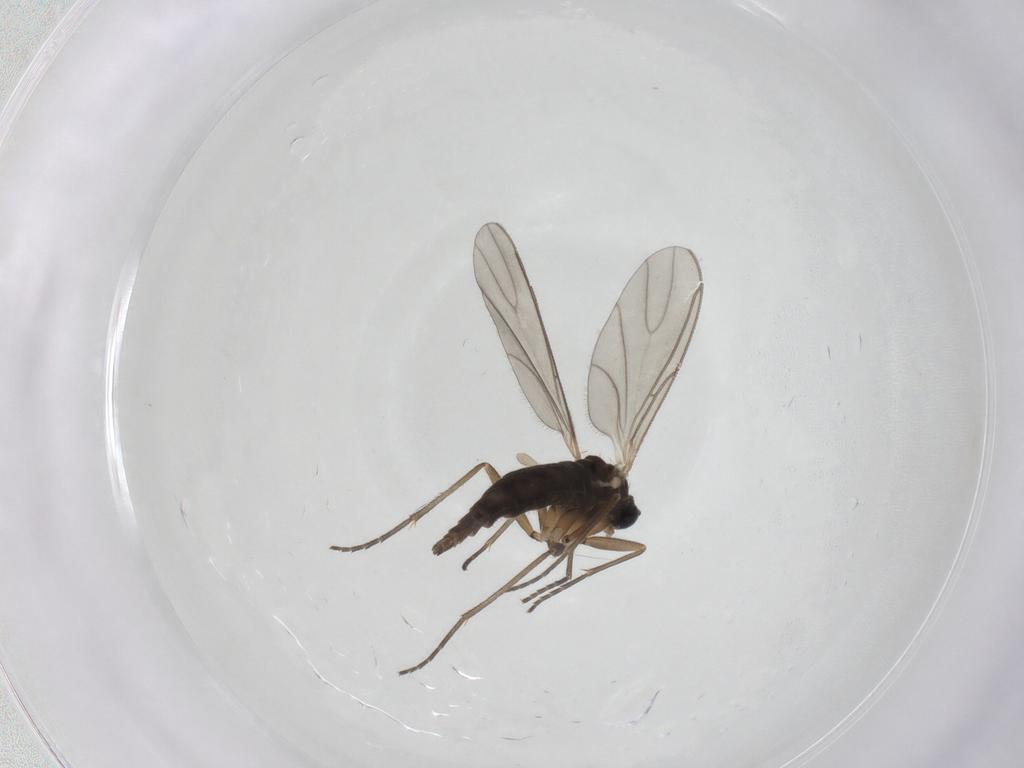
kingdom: Animalia
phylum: Arthropoda
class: Insecta
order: Diptera
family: Sciaridae
